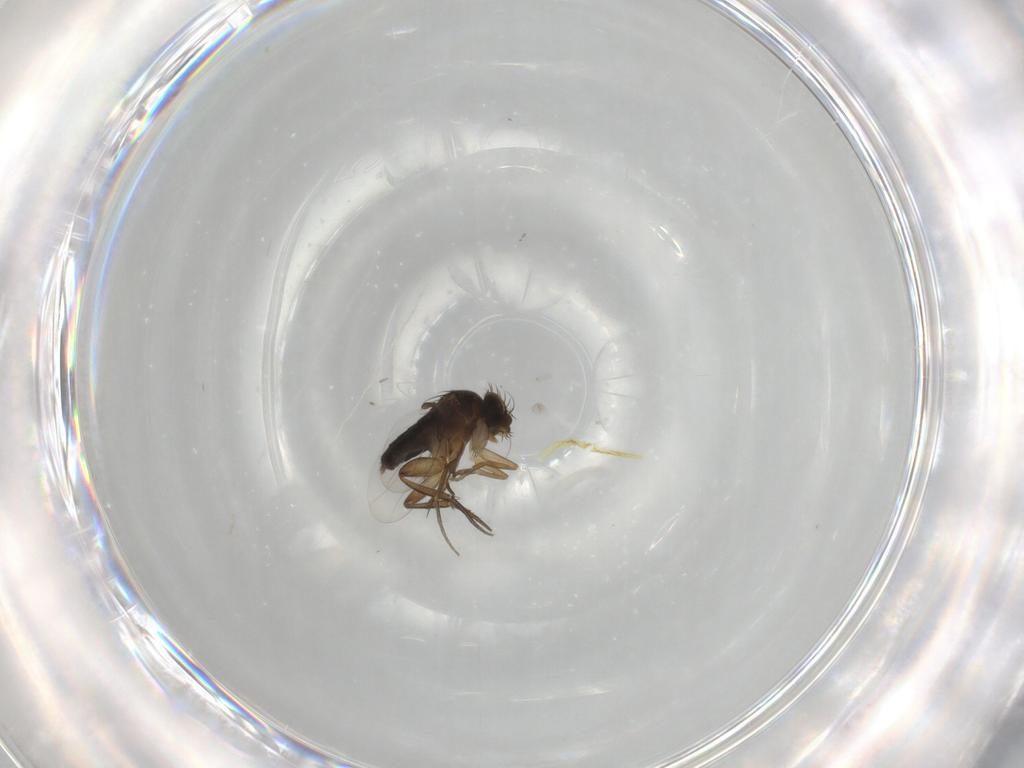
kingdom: Animalia
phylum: Arthropoda
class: Insecta
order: Diptera
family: Phoridae
